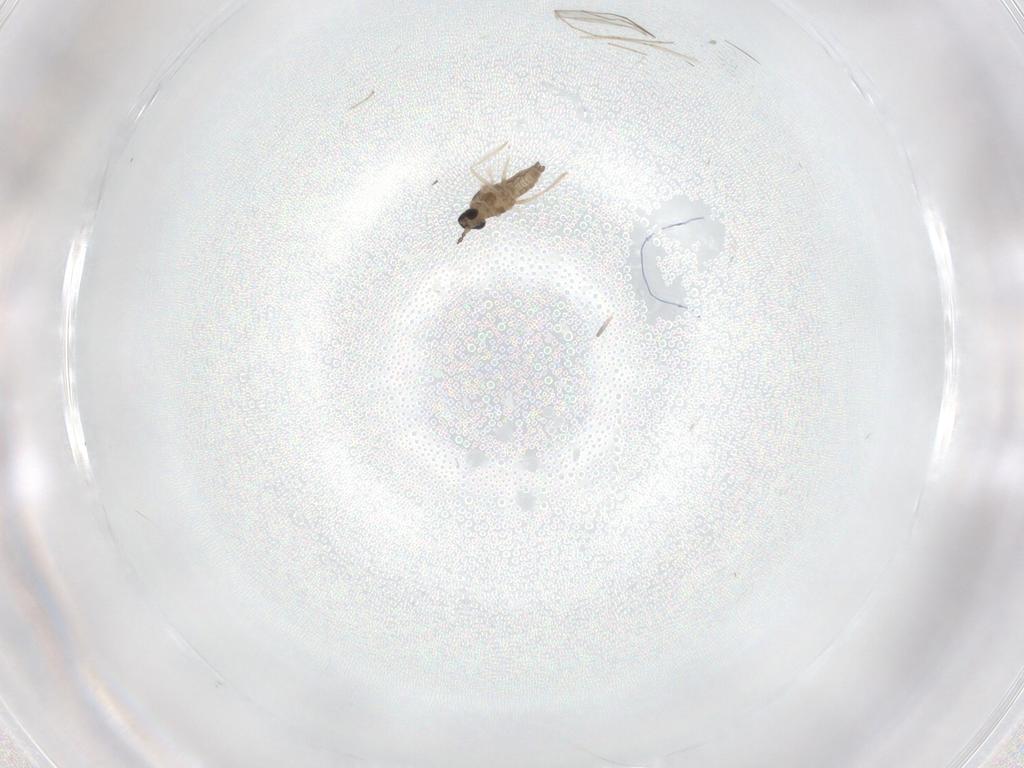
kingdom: Animalia
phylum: Arthropoda
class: Insecta
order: Diptera
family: Cecidomyiidae
